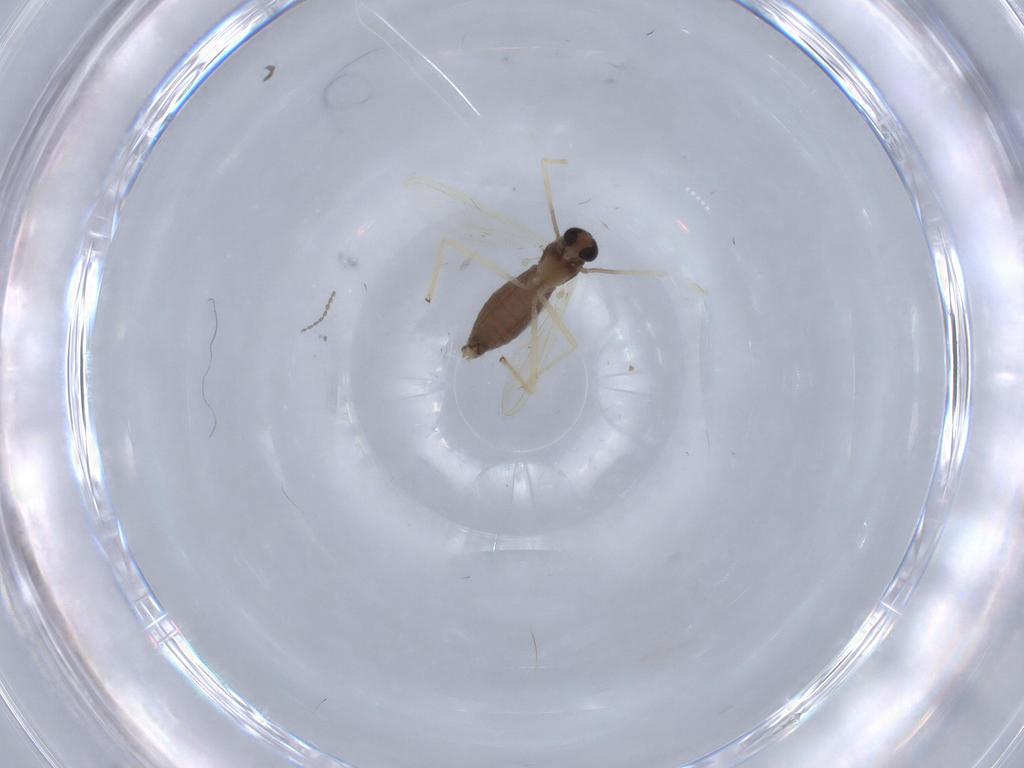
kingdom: Animalia
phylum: Arthropoda
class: Insecta
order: Diptera
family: Chironomidae
